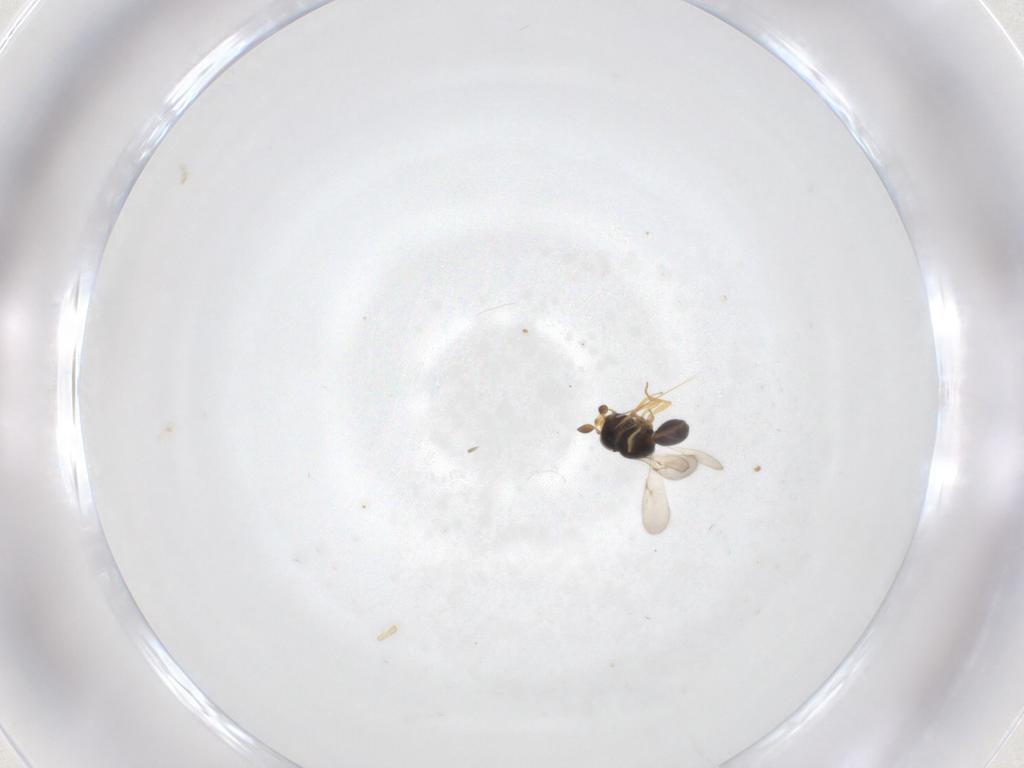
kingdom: Animalia
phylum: Arthropoda
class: Insecta
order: Hymenoptera
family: Scelionidae
